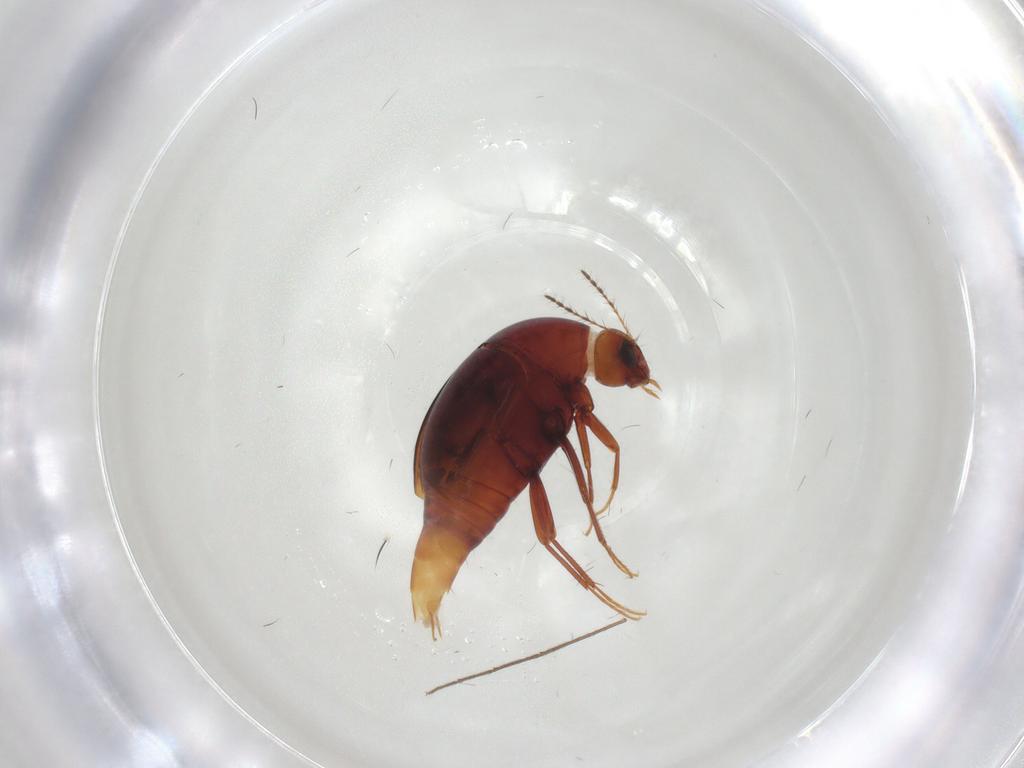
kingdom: Animalia
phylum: Arthropoda
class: Insecta
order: Coleoptera
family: Staphylinidae
